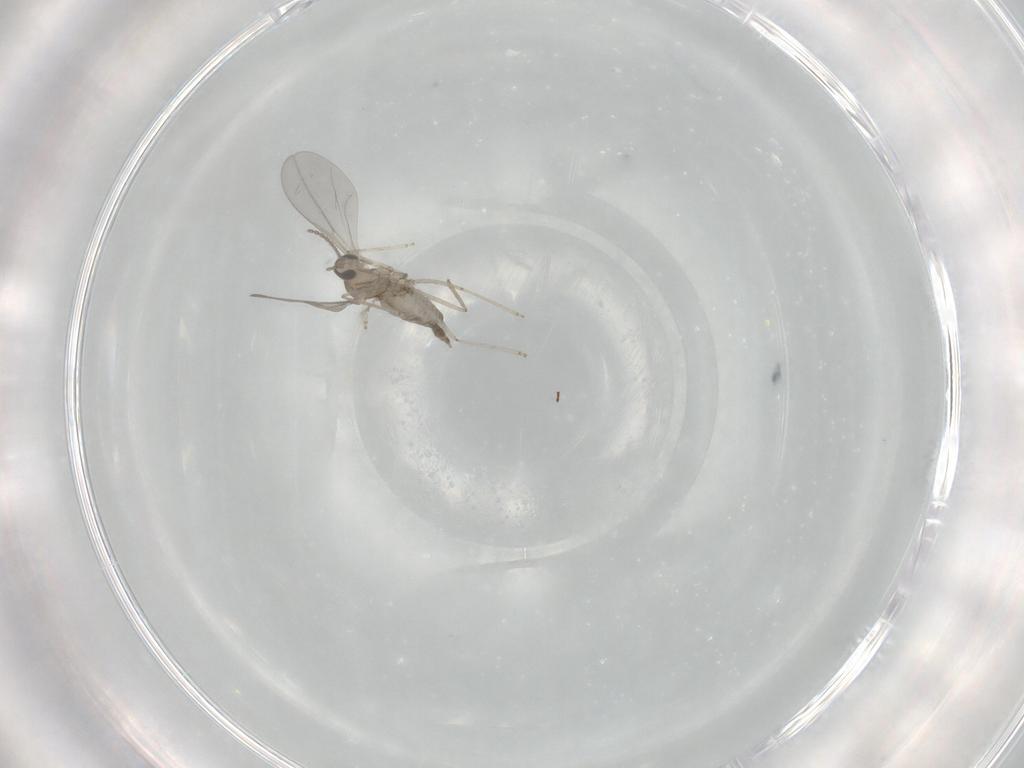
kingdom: Animalia
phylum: Arthropoda
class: Insecta
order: Diptera
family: Cecidomyiidae
